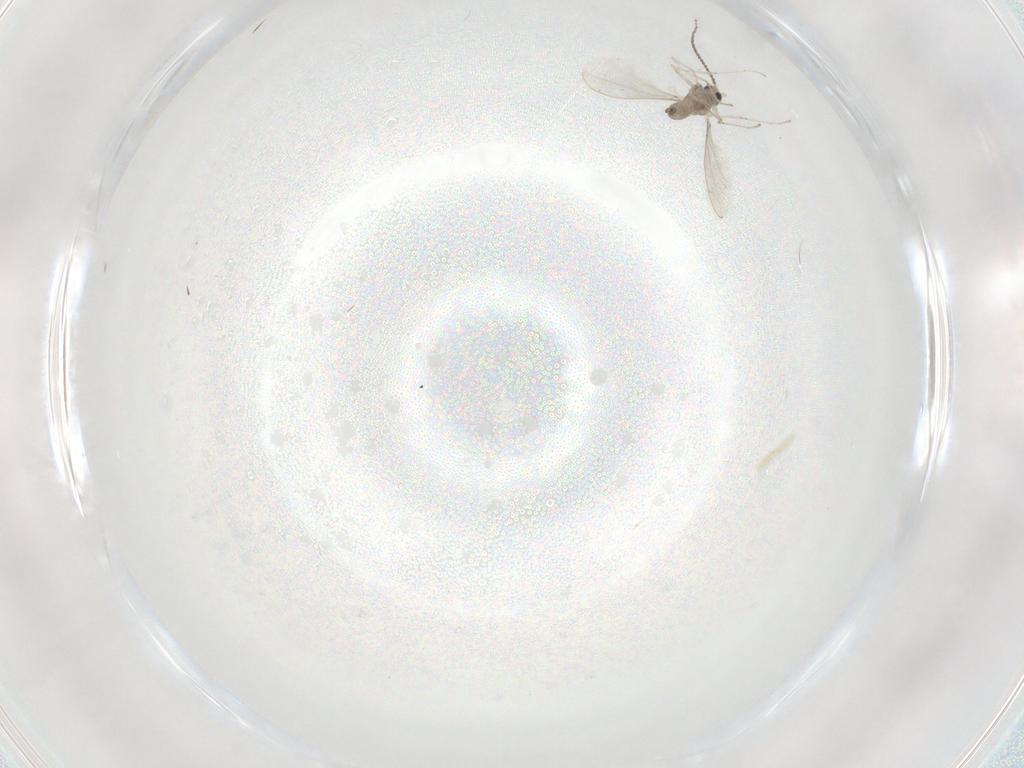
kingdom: Animalia
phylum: Arthropoda
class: Insecta
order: Diptera
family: Cecidomyiidae
